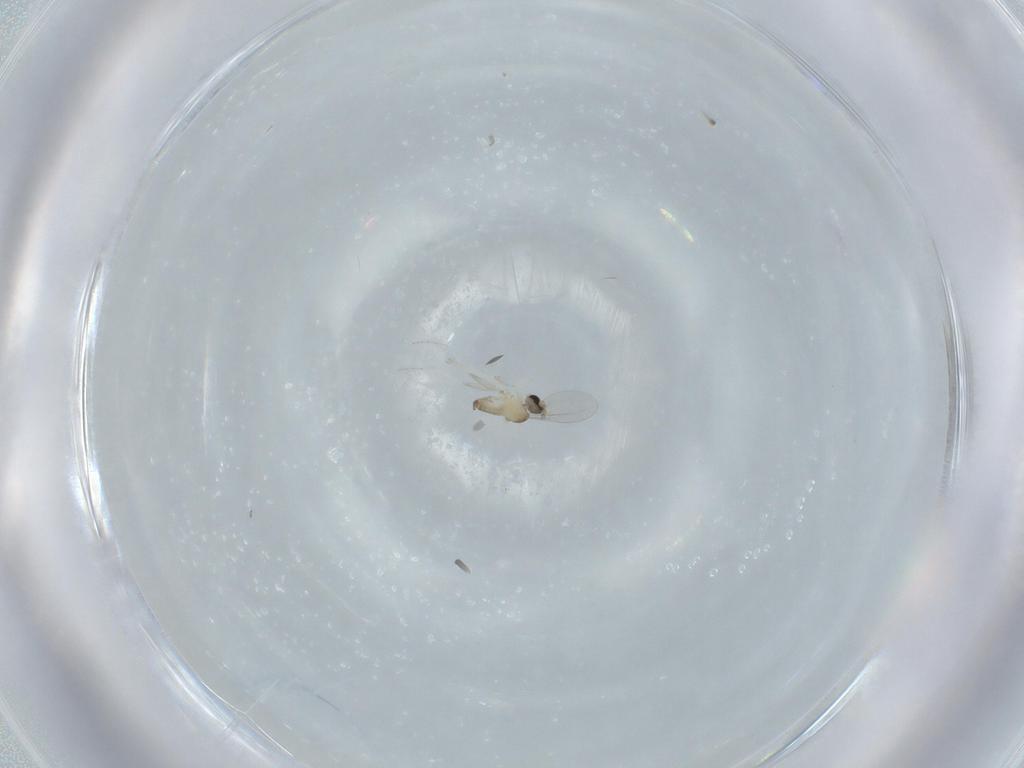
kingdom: Animalia
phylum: Arthropoda
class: Insecta
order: Diptera
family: Cecidomyiidae
